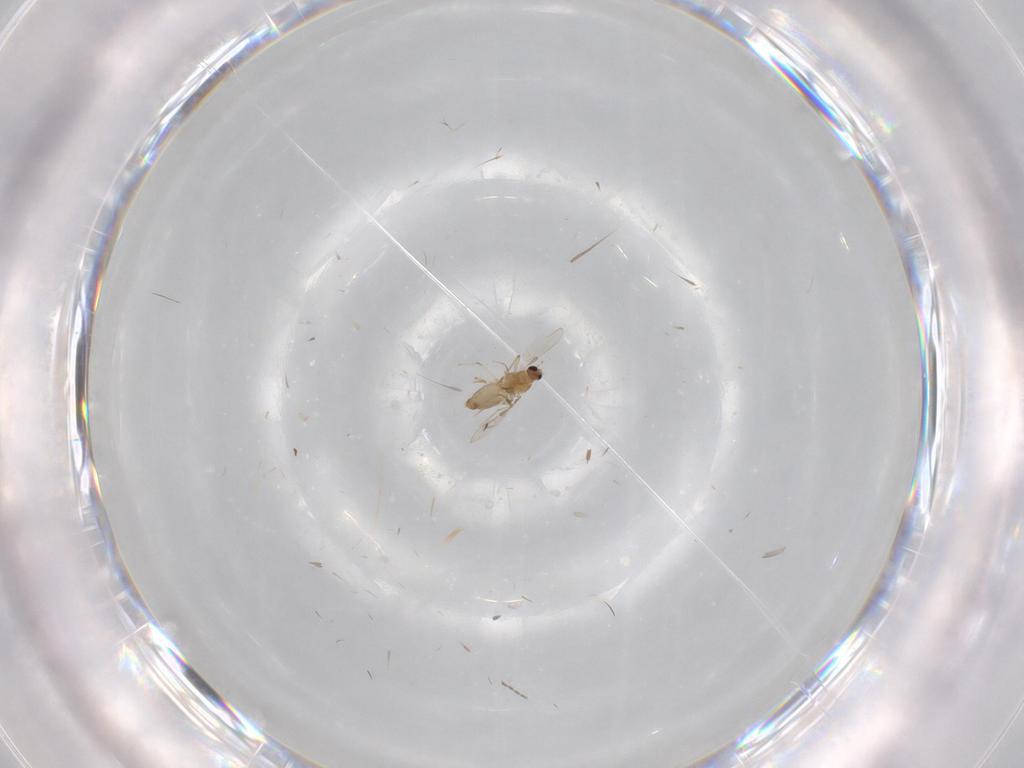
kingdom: Animalia
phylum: Arthropoda
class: Insecta
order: Diptera
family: Chironomidae
